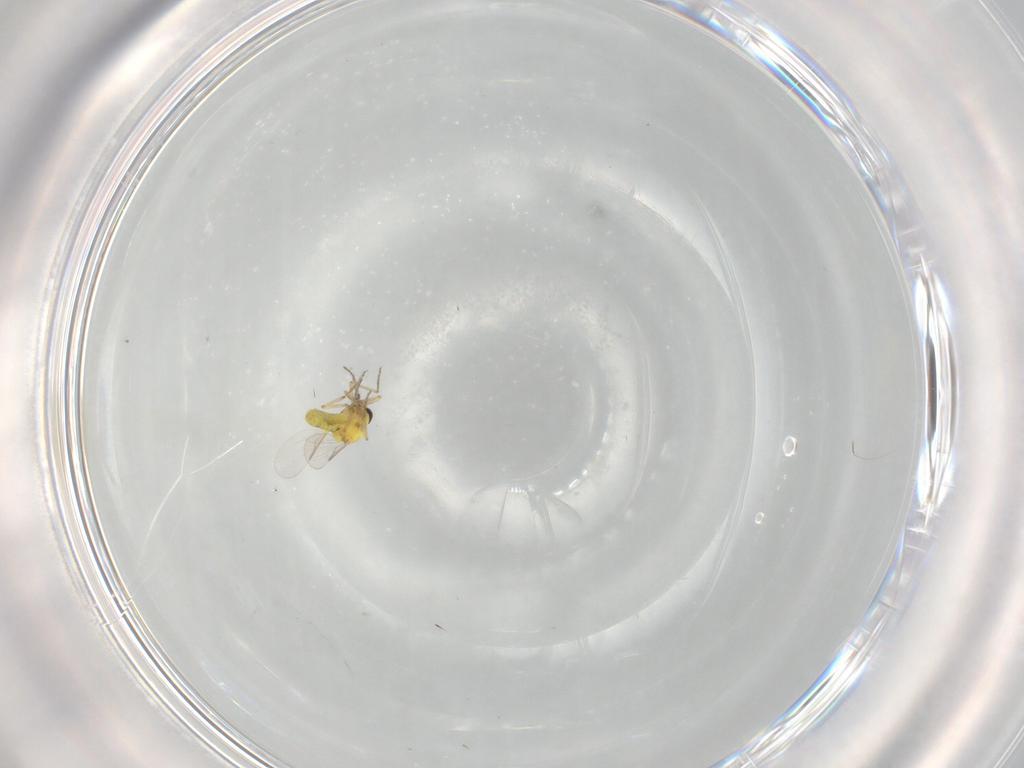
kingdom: Animalia
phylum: Arthropoda
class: Insecta
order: Diptera
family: Ceratopogonidae
